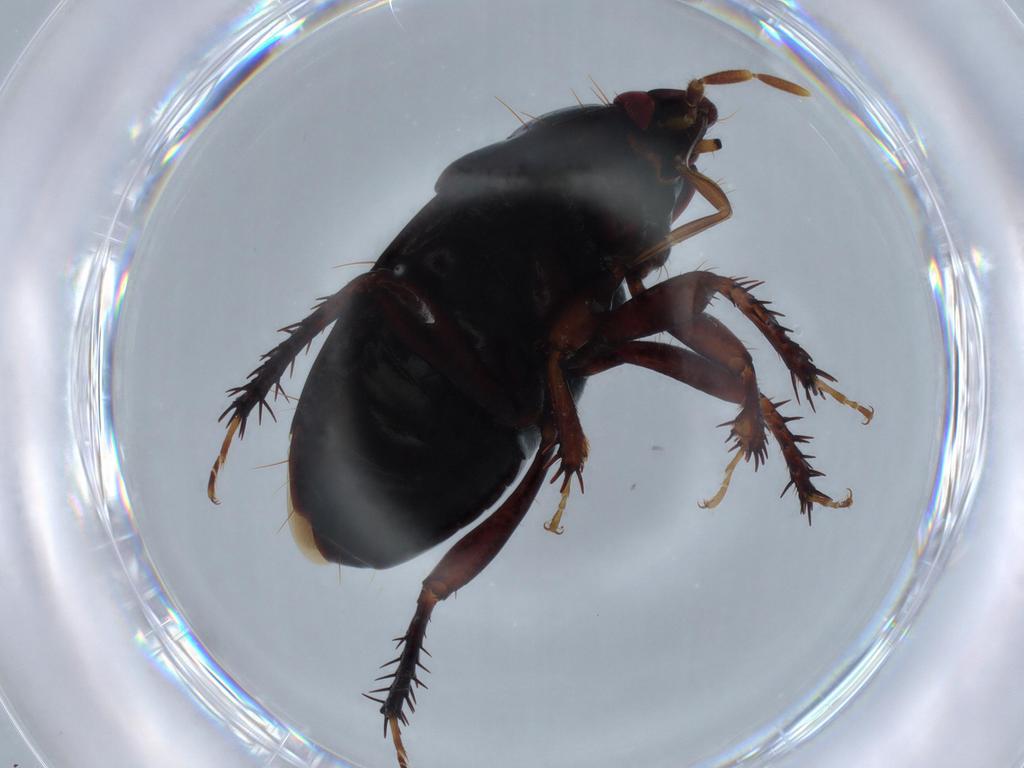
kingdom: Animalia
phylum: Arthropoda
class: Insecta
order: Hemiptera
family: Cydnidae
